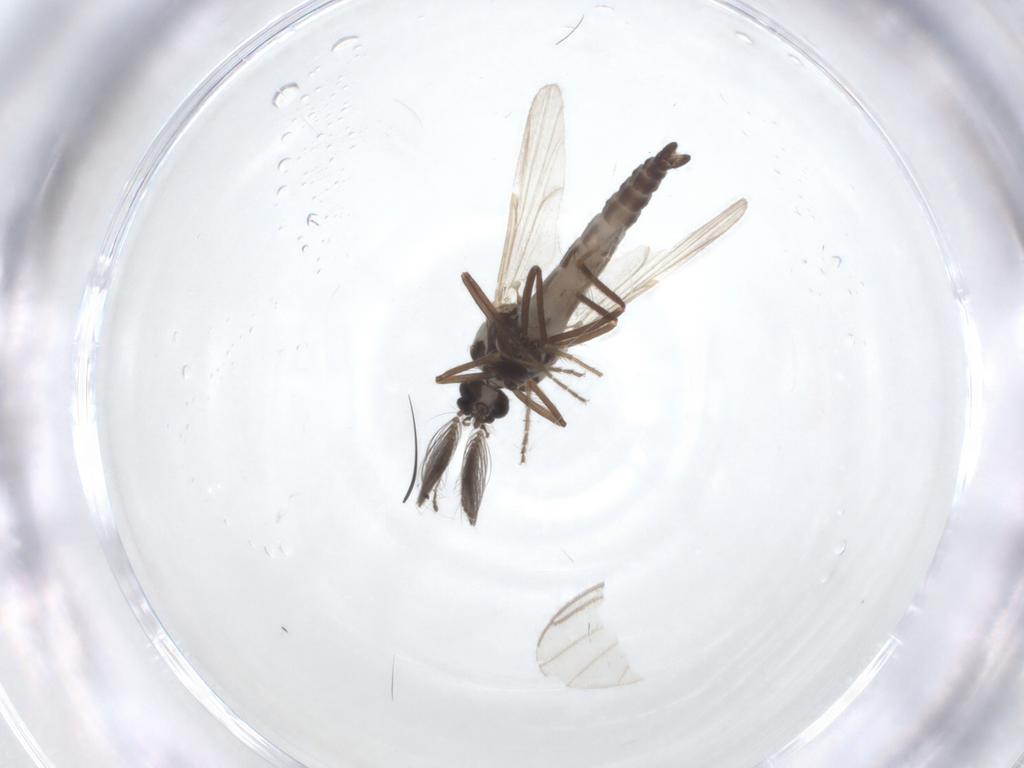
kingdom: Animalia
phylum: Arthropoda
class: Insecta
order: Diptera
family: Ceratopogonidae
